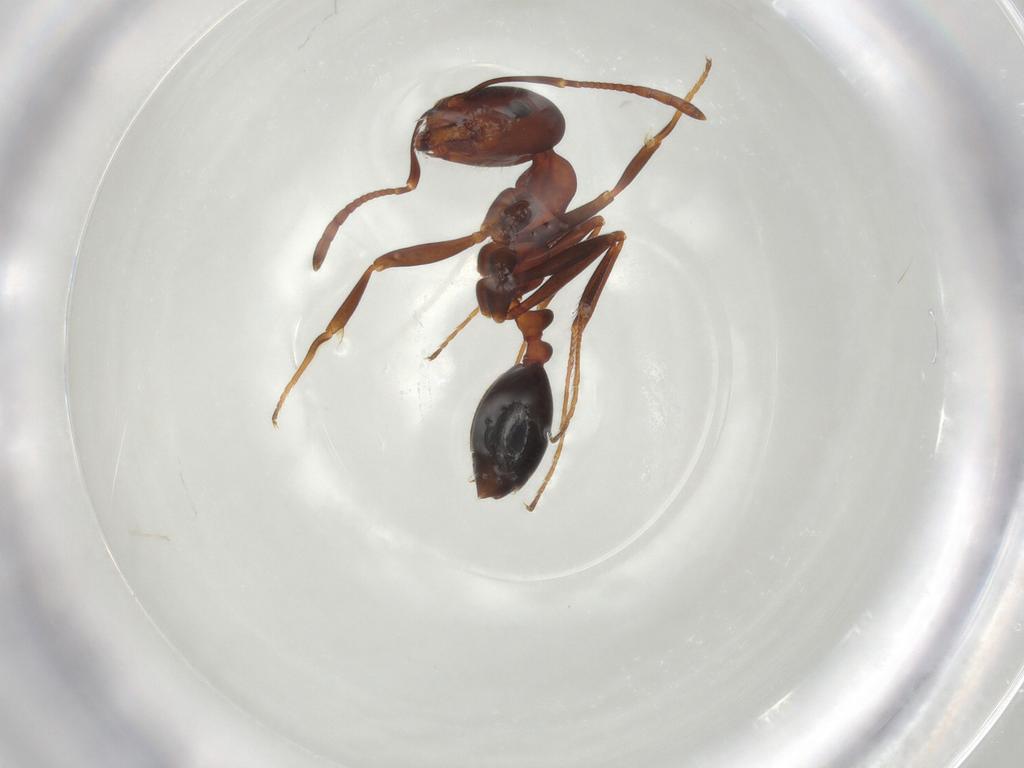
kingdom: Animalia
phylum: Arthropoda
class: Insecta
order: Hymenoptera
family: Formicidae
